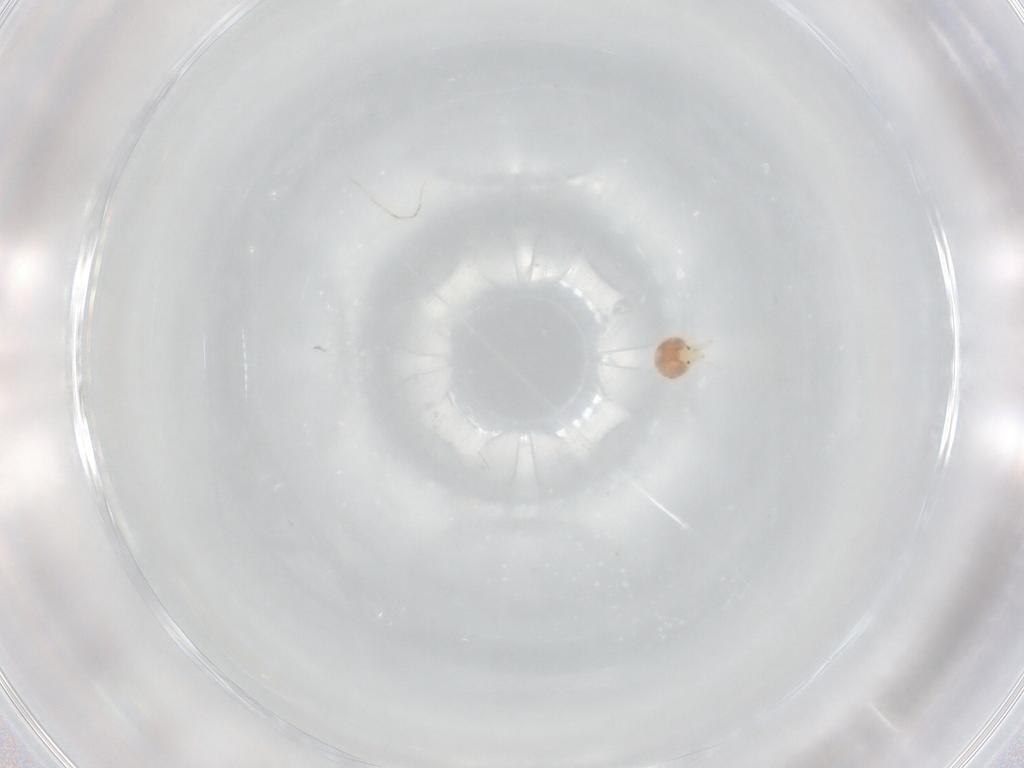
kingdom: Animalia
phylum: Arthropoda
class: Arachnida
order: Trombidiformes
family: Hygrobatidae
